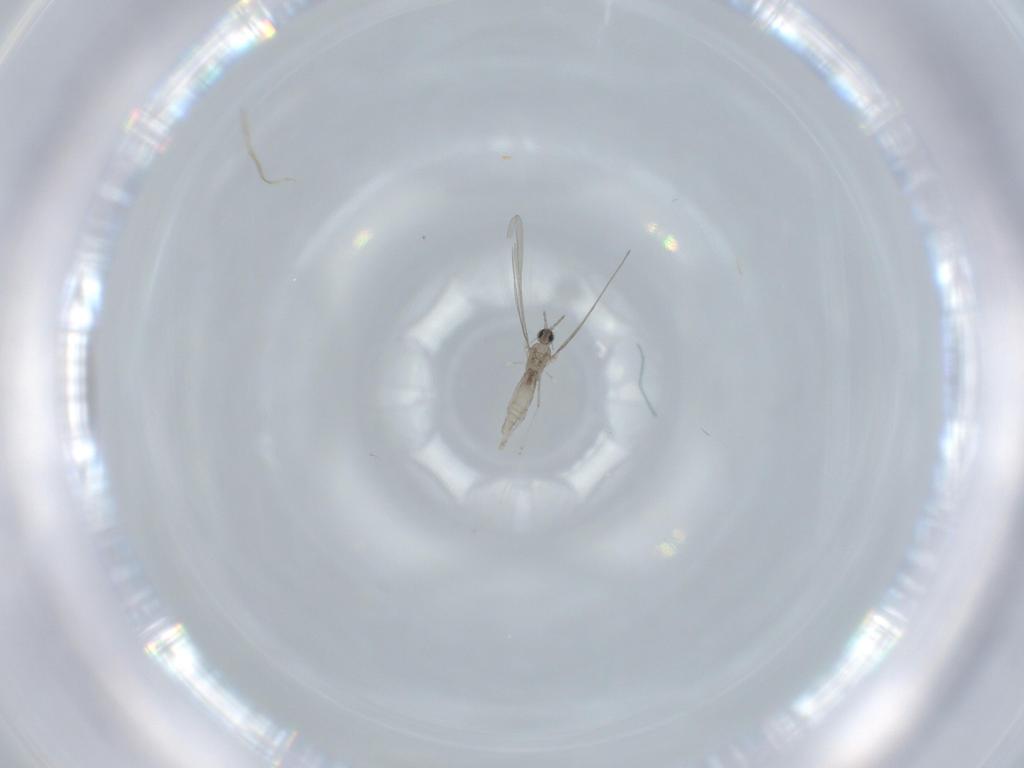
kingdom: Animalia
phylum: Arthropoda
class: Insecta
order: Diptera
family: Cecidomyiidae
